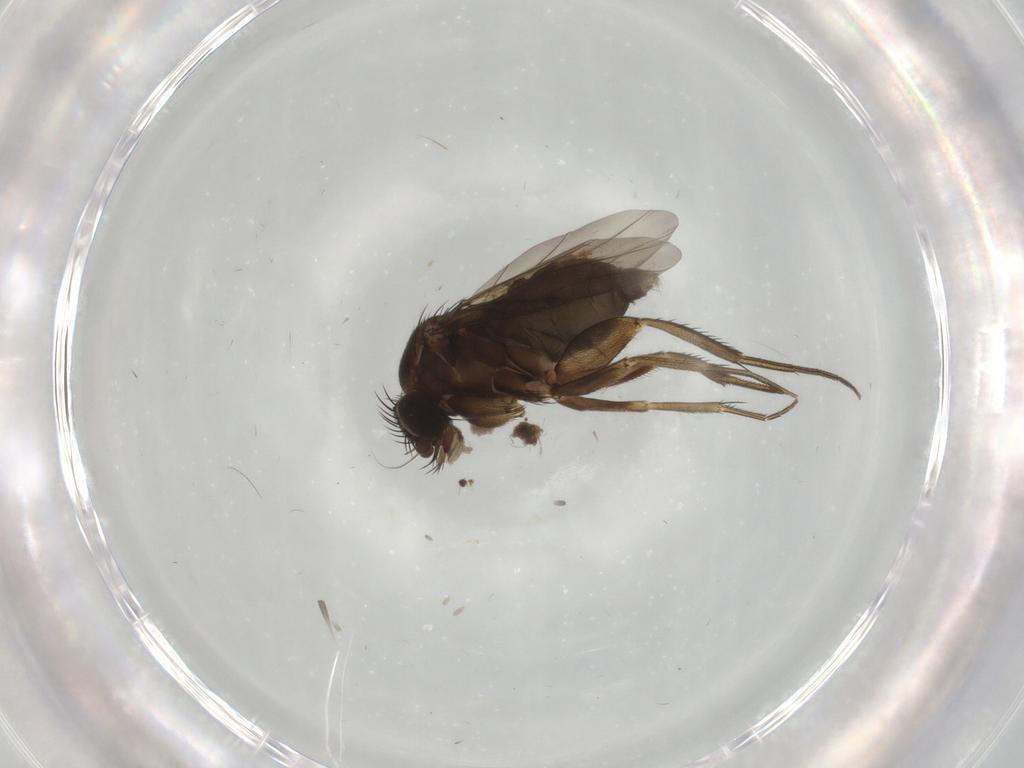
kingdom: Animalia
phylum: Arthropoda
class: Insecta
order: Diptera
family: Phoridae
